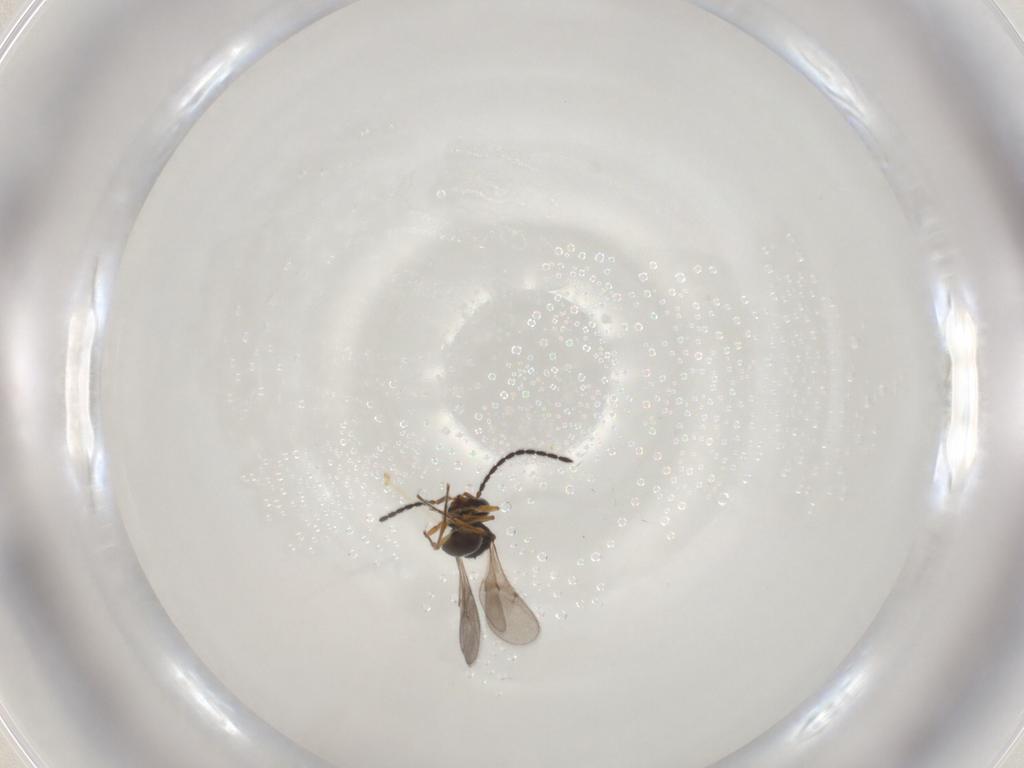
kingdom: Animalia
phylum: Arthropoda
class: Insecta
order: Hymenoptera
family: Scelionidae
